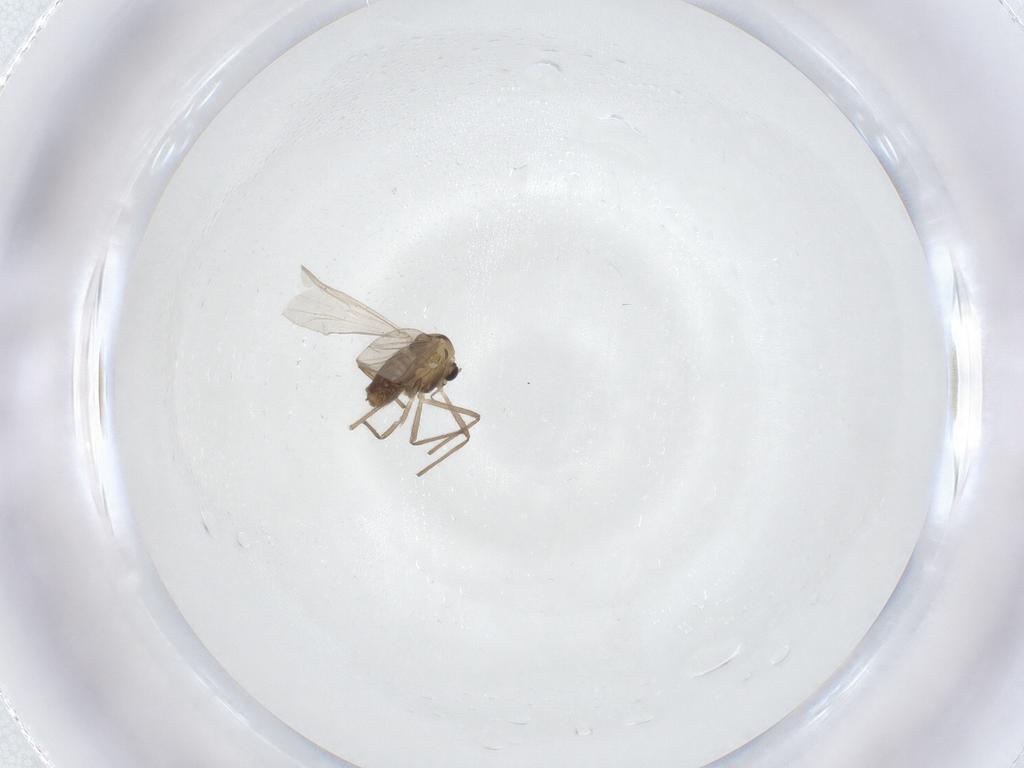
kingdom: Animalia
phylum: Arthropoda
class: Insecta
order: Diptera
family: Chironomidae
